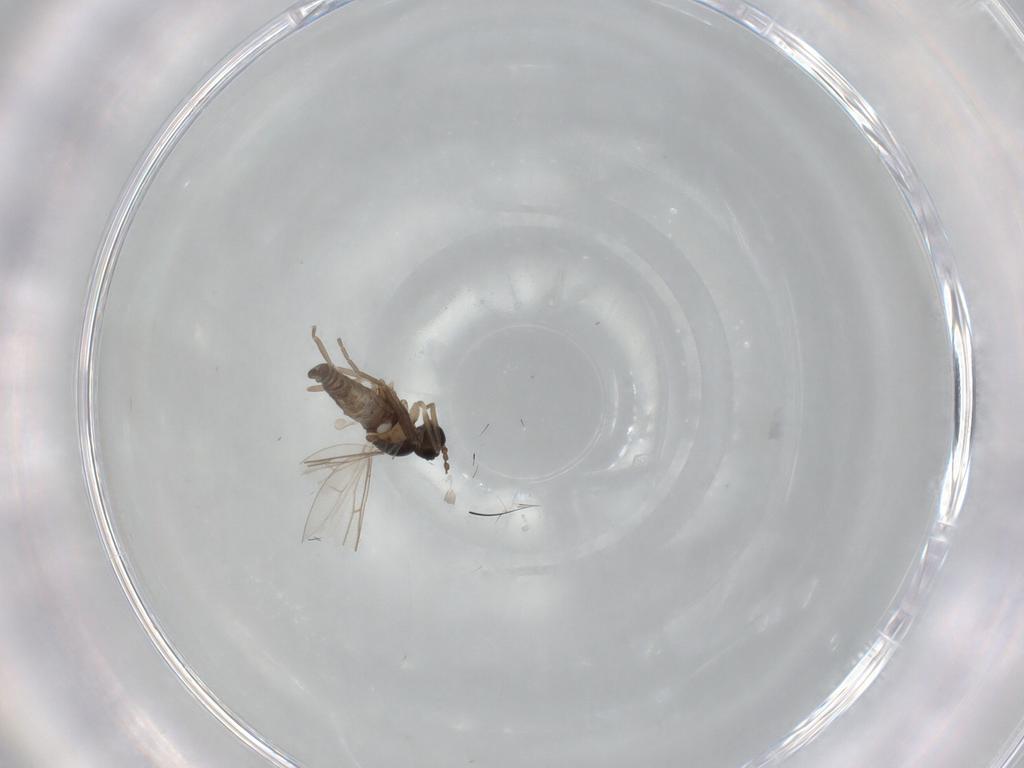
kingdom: Animalia
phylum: Arthropoda
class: Insecta
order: Diptera
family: Cecidomyiidae
